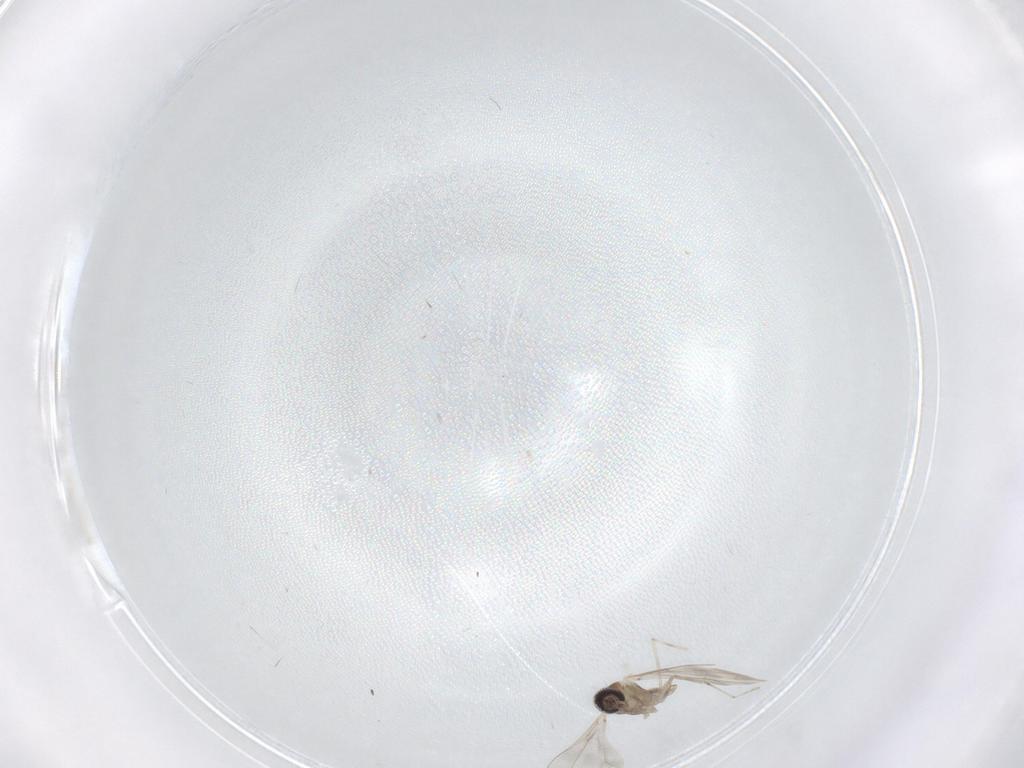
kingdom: Animalia
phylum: Arthropoda
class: Insecta
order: Diptera
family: Cecidomyiidae
